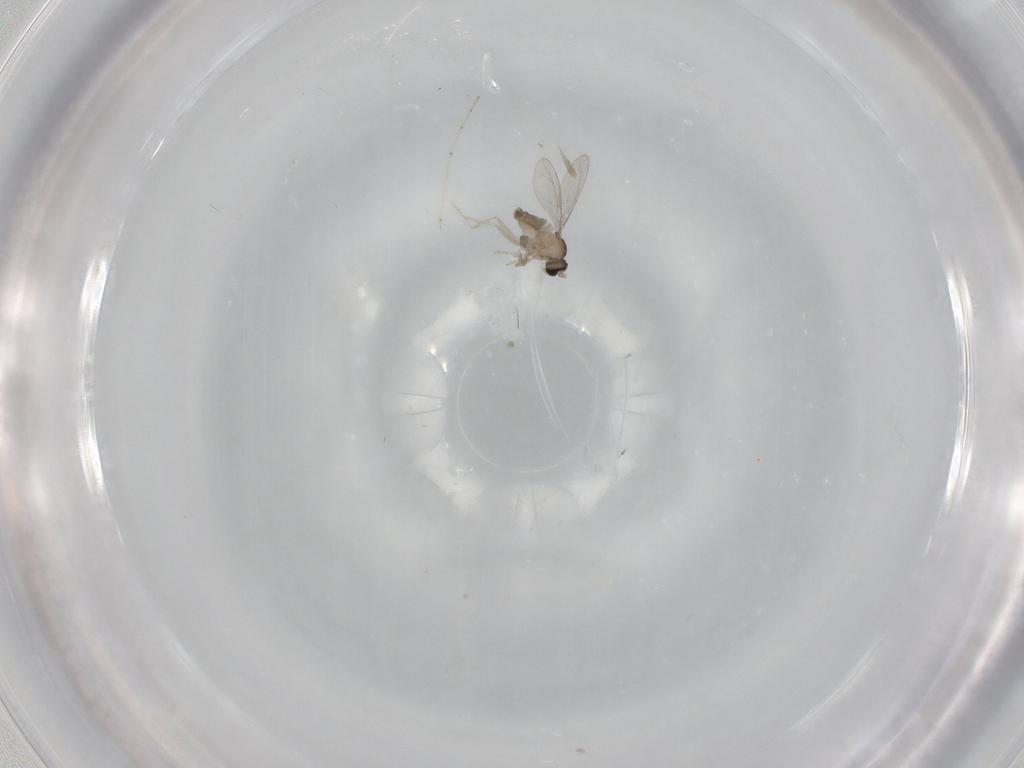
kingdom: Animalia
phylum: Arthropoda
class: Insecta
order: Diptera
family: Cecidomyiidae
